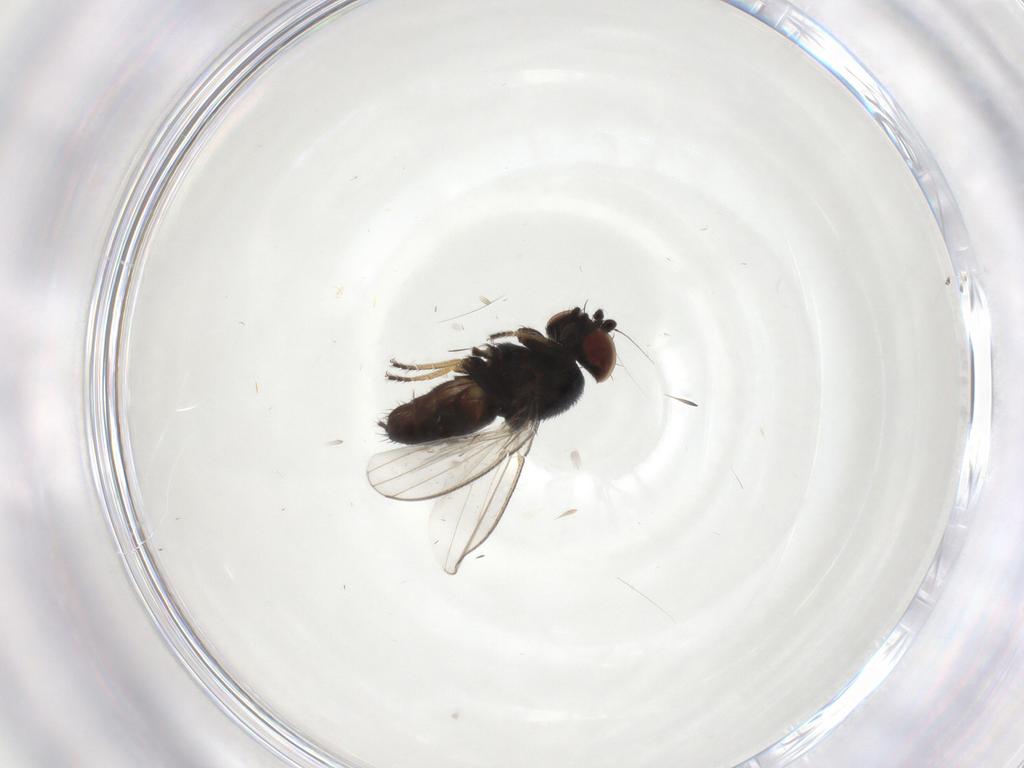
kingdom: Animalia
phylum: Arthropoda
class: Insecta
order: Diptera
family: Milichiidae
